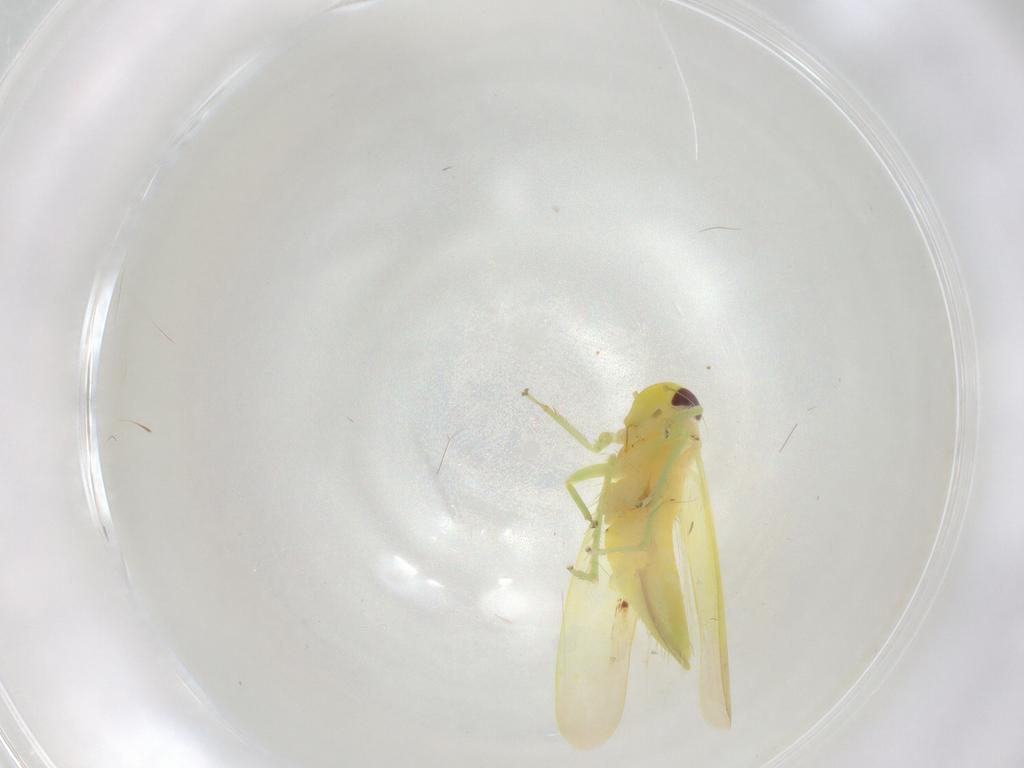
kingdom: Animalia
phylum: Arthropoda
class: Insecta
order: Hemiptera
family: Cicadellidae
